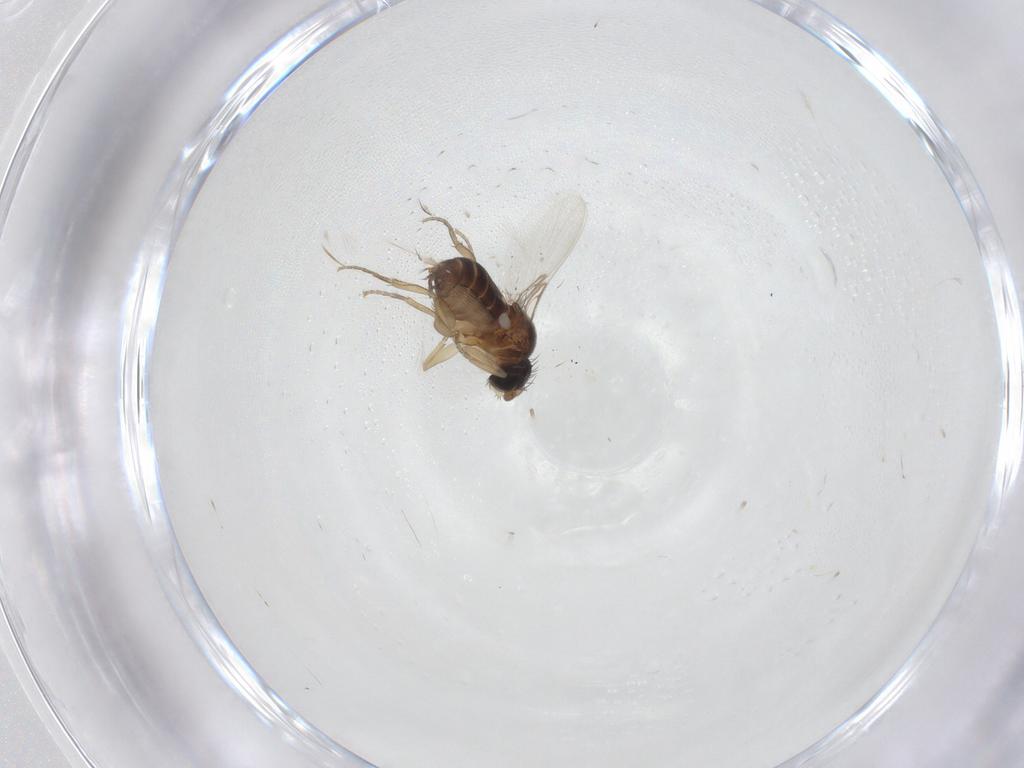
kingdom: Animalia
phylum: Arthropoda
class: Insecta
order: Diptera
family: Phoridae
